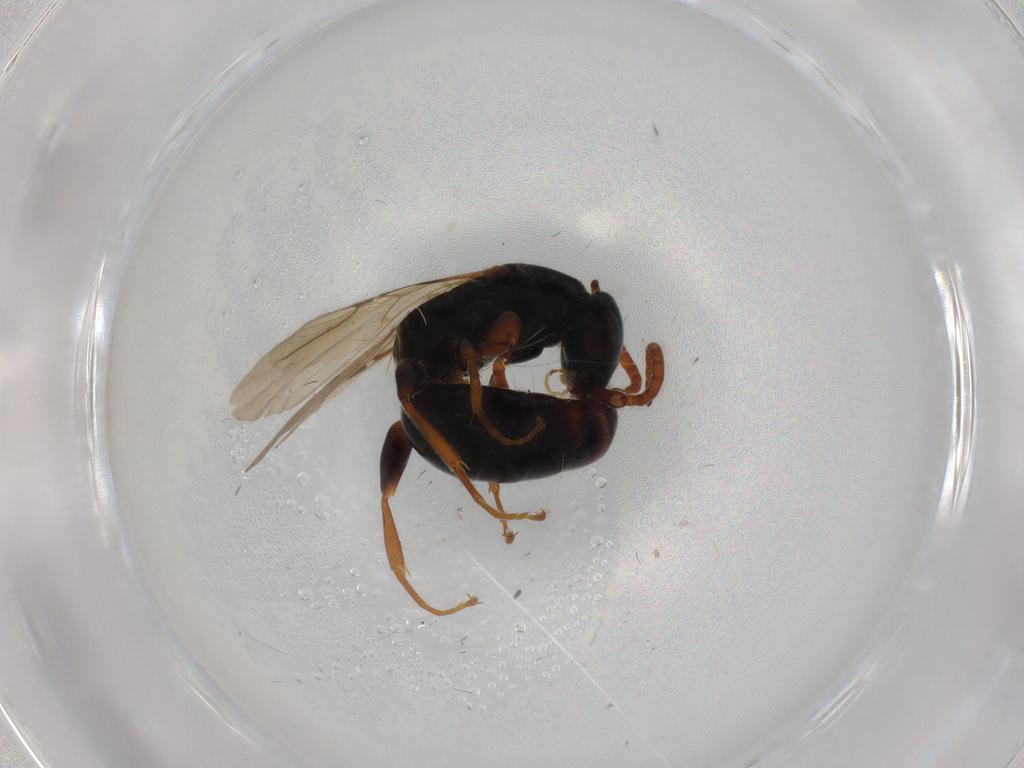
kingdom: Animalia
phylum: Arthropoda
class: Insecta
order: Hymenoptera
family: Bethylidae
